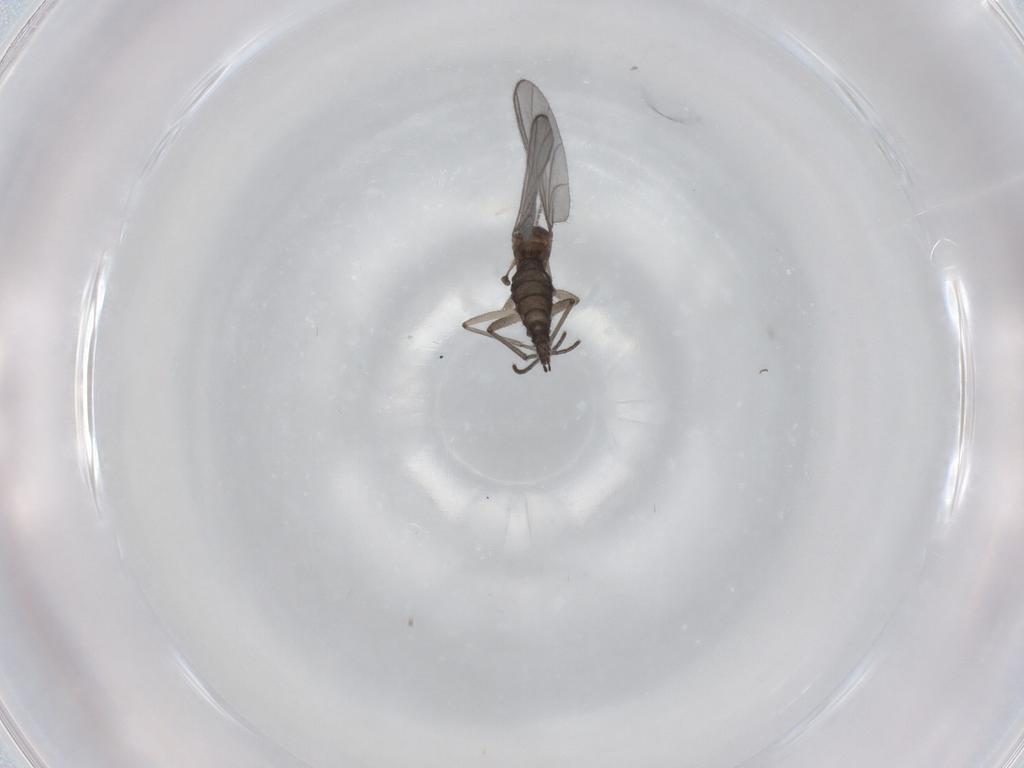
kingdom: Animalia
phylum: Arthropoda
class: Insecta
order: Diptera
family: Sciaridae
